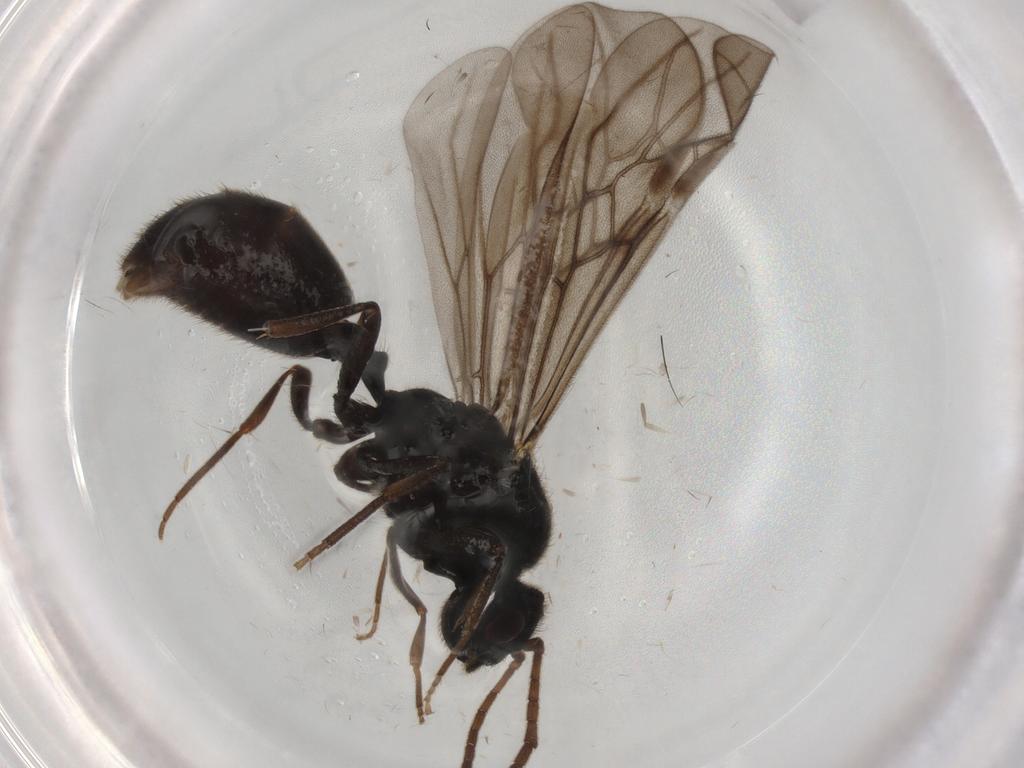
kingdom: Animalia
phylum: Arthropoda
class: Insecta
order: Hymenoptera
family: Formicidae
